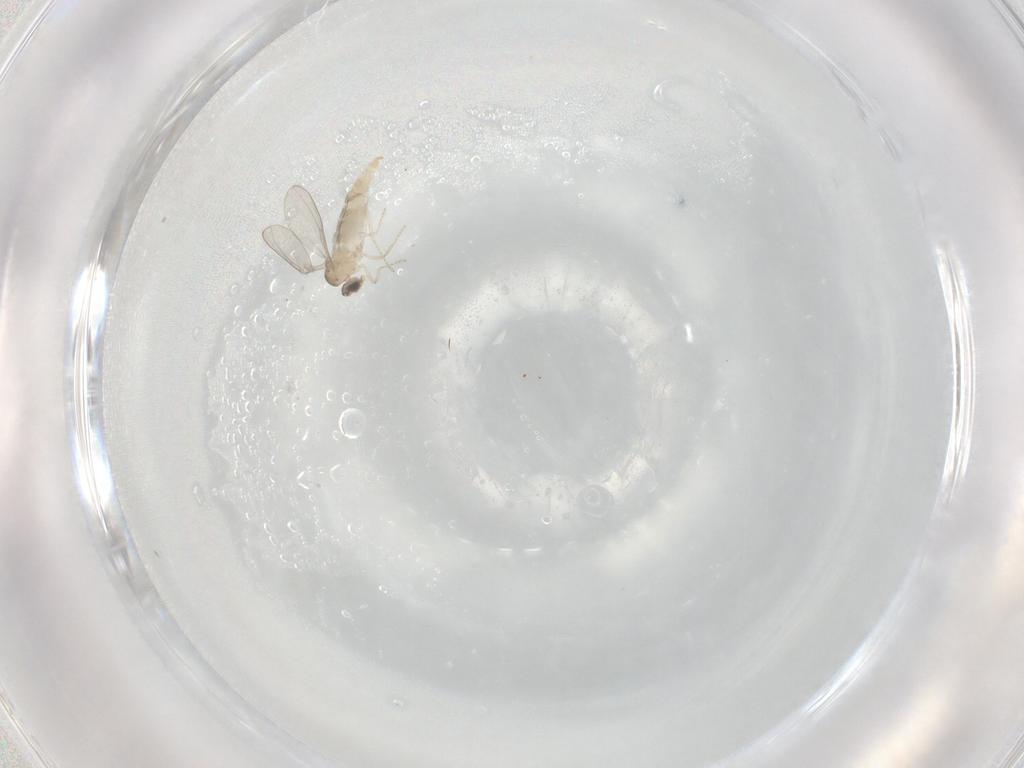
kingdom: Animalia
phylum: Arthropoda
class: Insecta
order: Diptera
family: Cecidomyiidae
